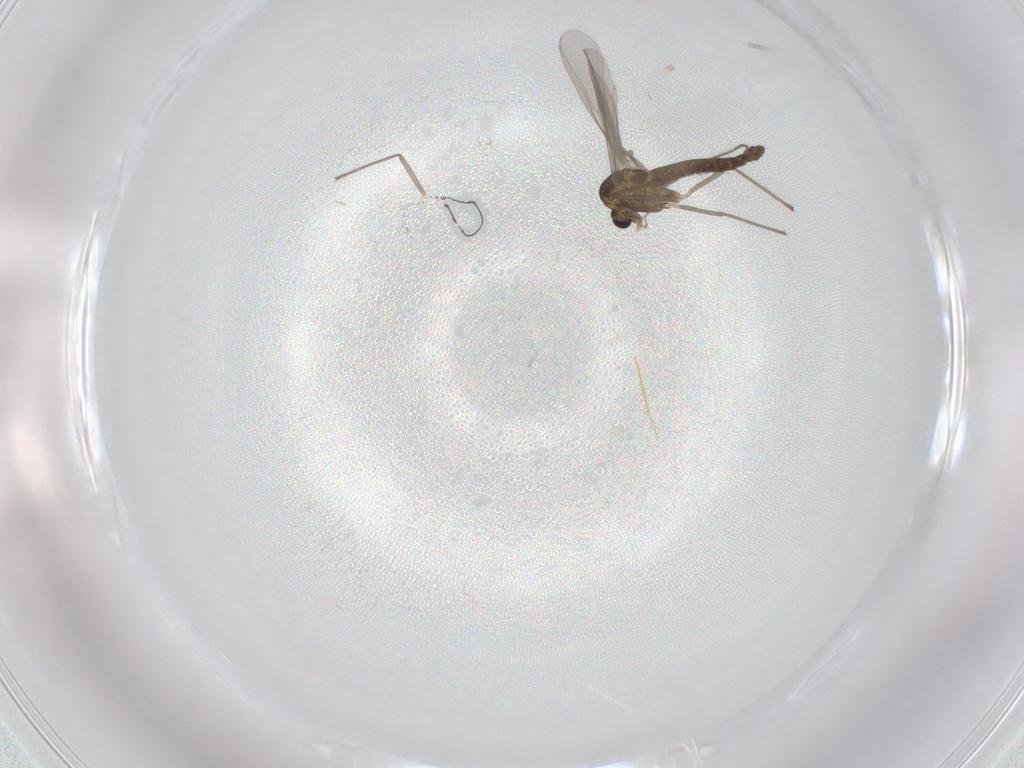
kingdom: Animalia
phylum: Arthropoda
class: Insecta
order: Diptera
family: Chironomidae
